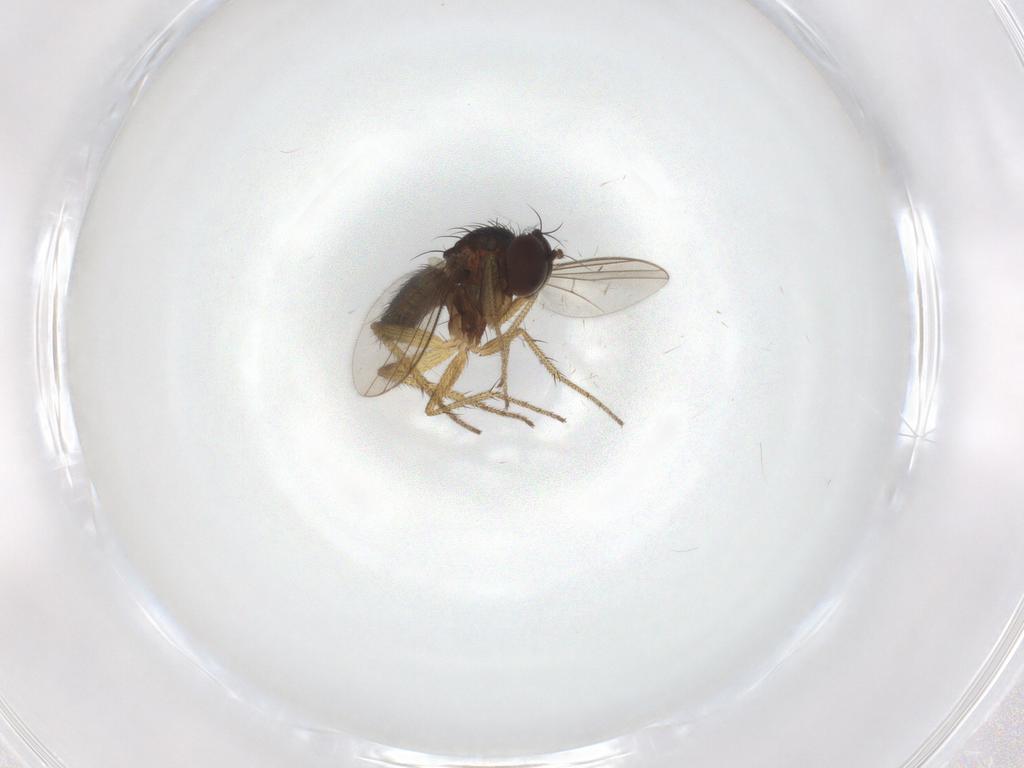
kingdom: Animalia
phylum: Arthropoda
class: Insecta
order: Diptera
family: Dolichopodidae
